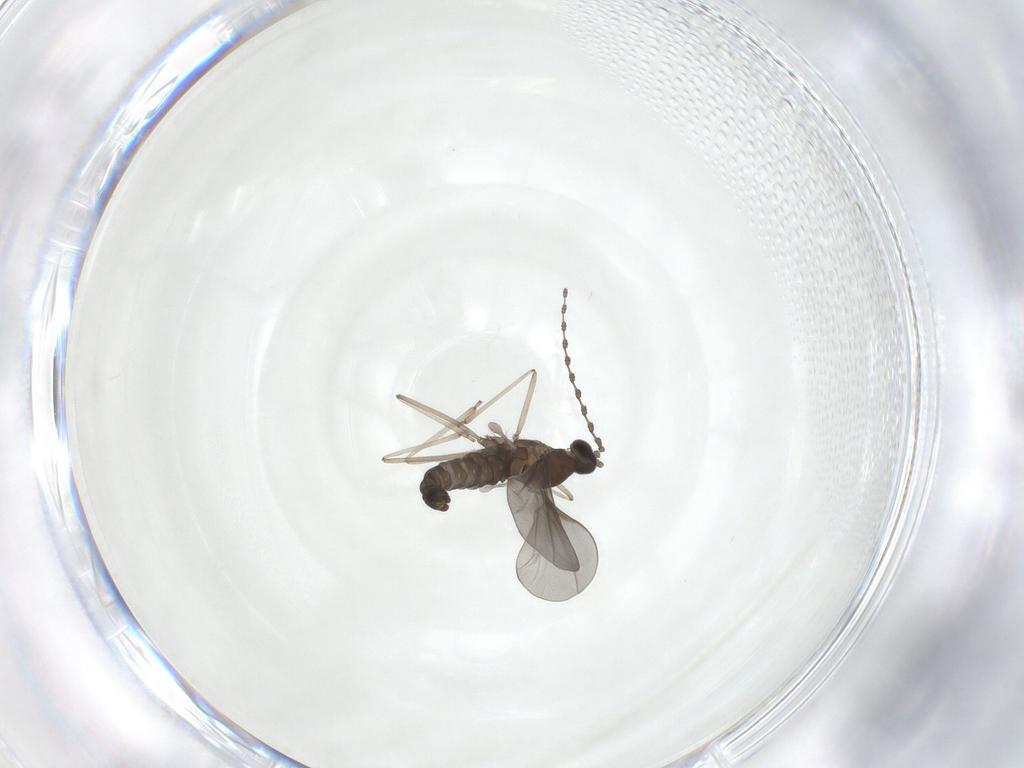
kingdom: Animalia
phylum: Arthropoda
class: Insecta
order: Diptera
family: Cecidomyiidae
